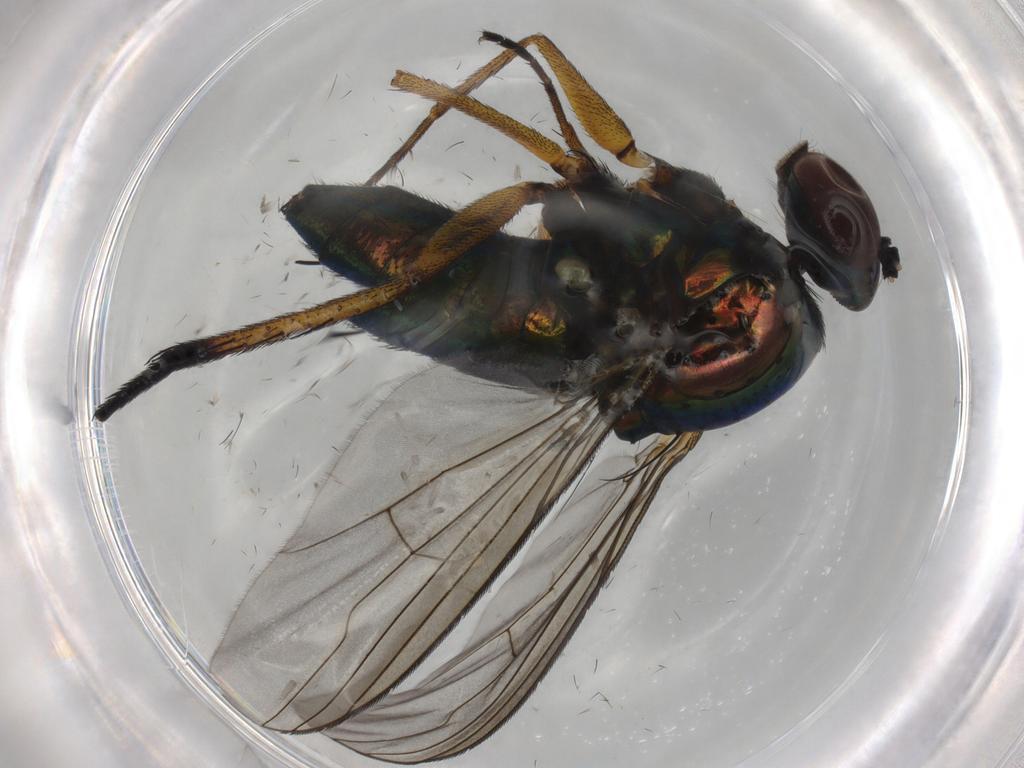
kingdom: Animalia
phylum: Arthropoda
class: Insecta
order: Diptera
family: Dolichopodidae
